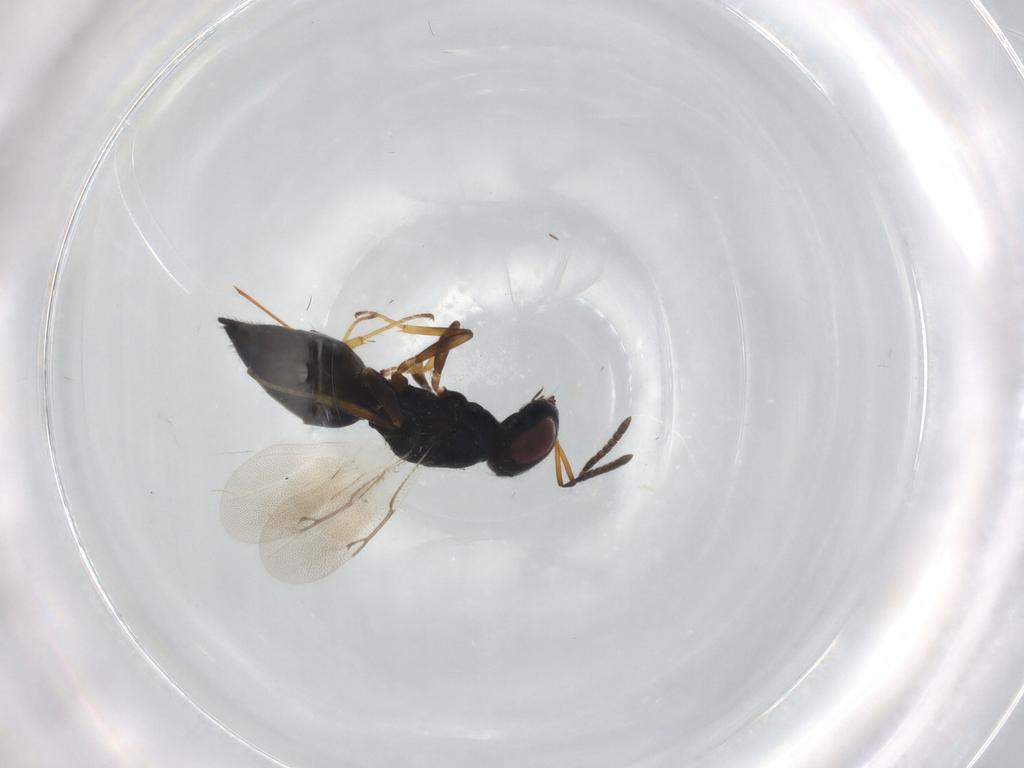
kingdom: Animalia
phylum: Arthropoda
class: Insecta
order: Hymenoptera
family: Pteromalidae
